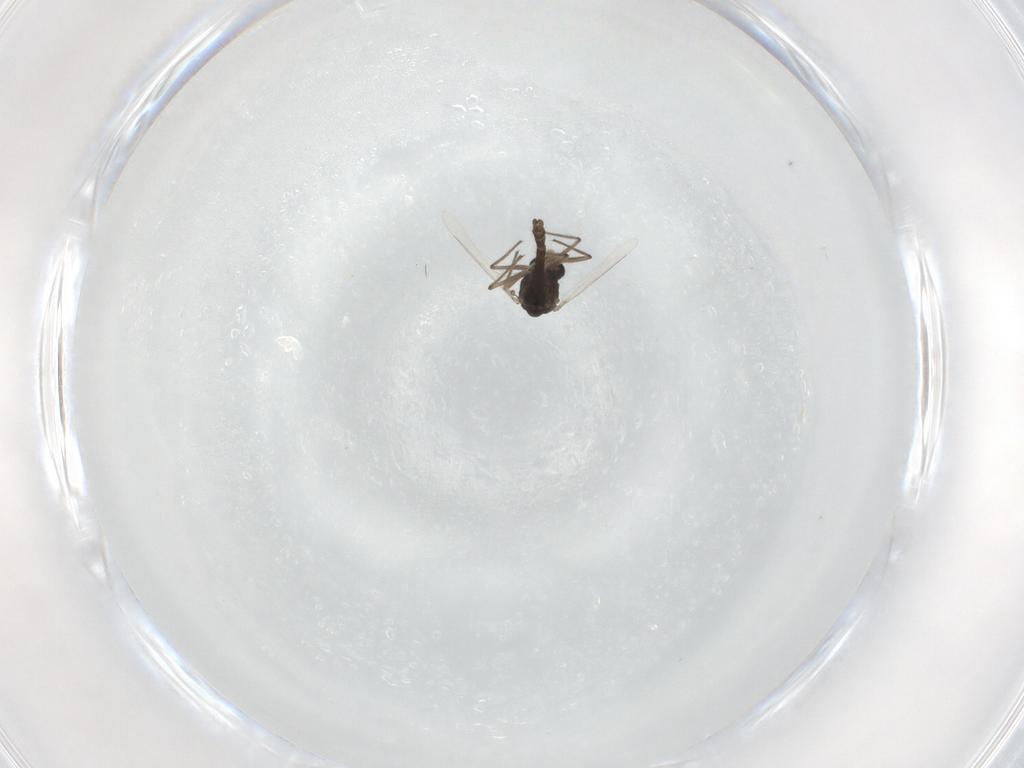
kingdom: Animalia
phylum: Arthropoda
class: Insecta
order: Diptera
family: Chironomidae
